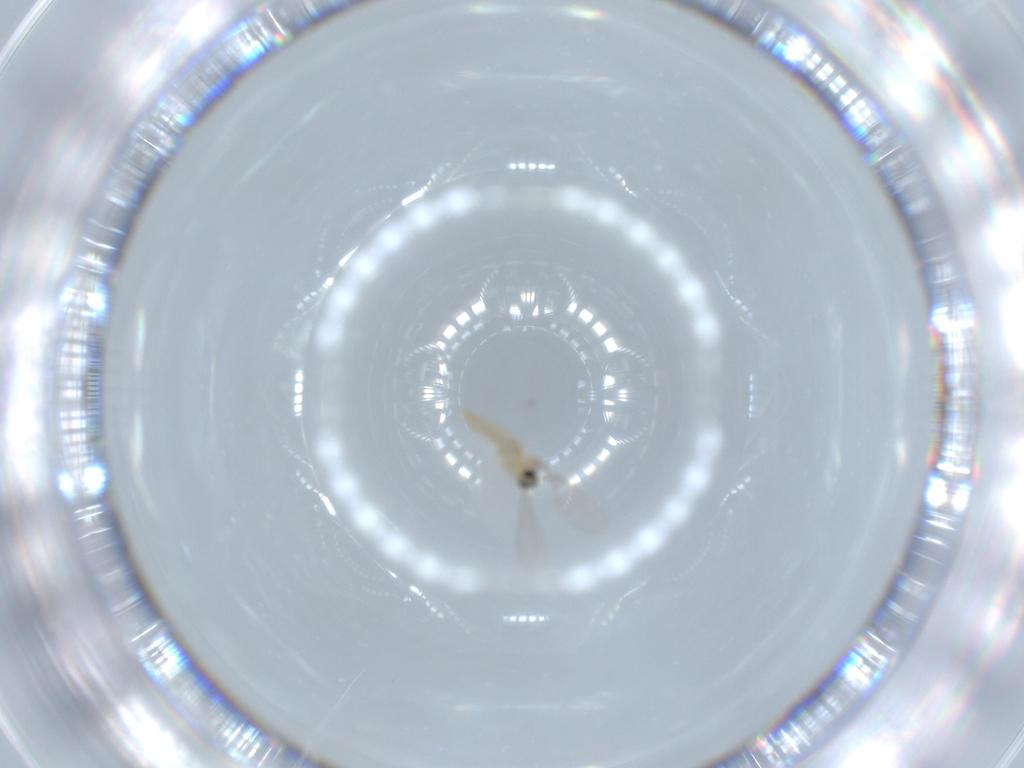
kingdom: Animalia
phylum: Arthropoda
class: Insecta
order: Diptera
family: Cecidomyiidae
